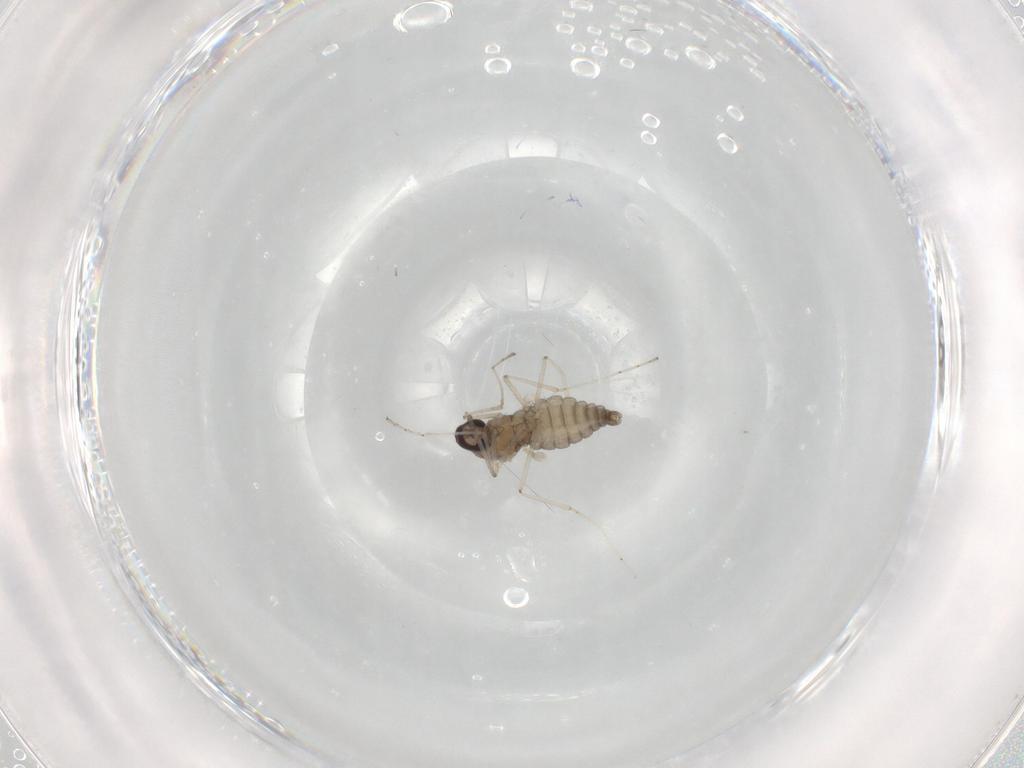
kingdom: Animalia
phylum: Arthropoda
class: Insecta
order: Diptera
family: Cecidomyiidae
